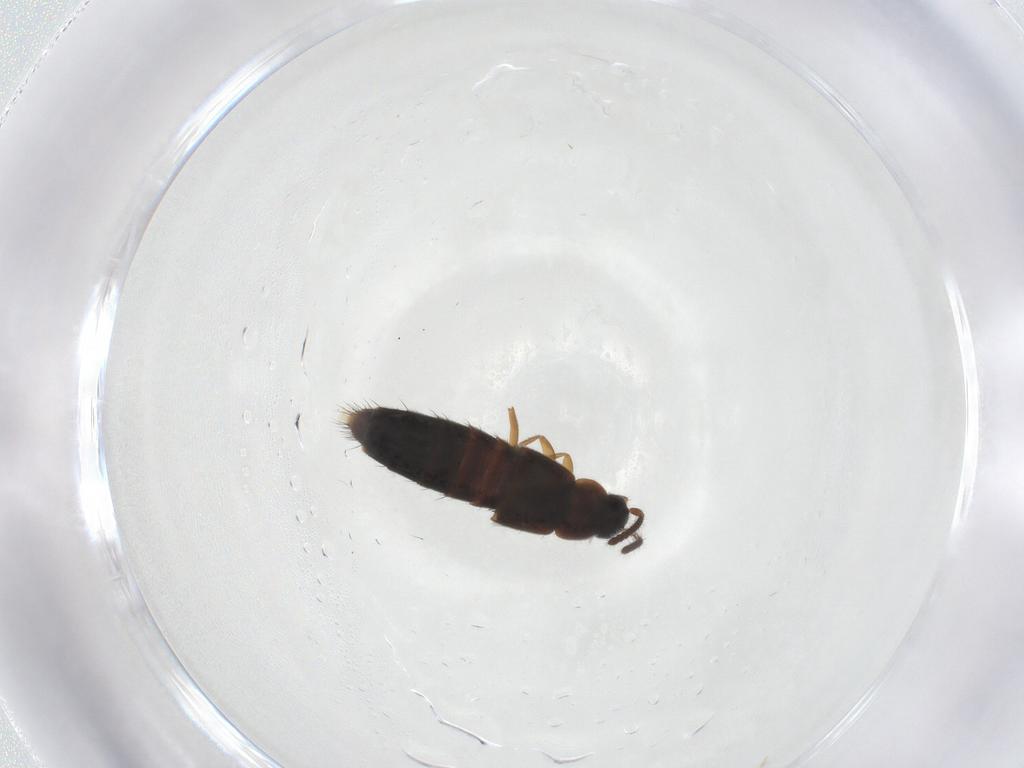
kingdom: Animalia
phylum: Arthropoda
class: Insecta
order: Coleoptera
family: Staphylinidae
